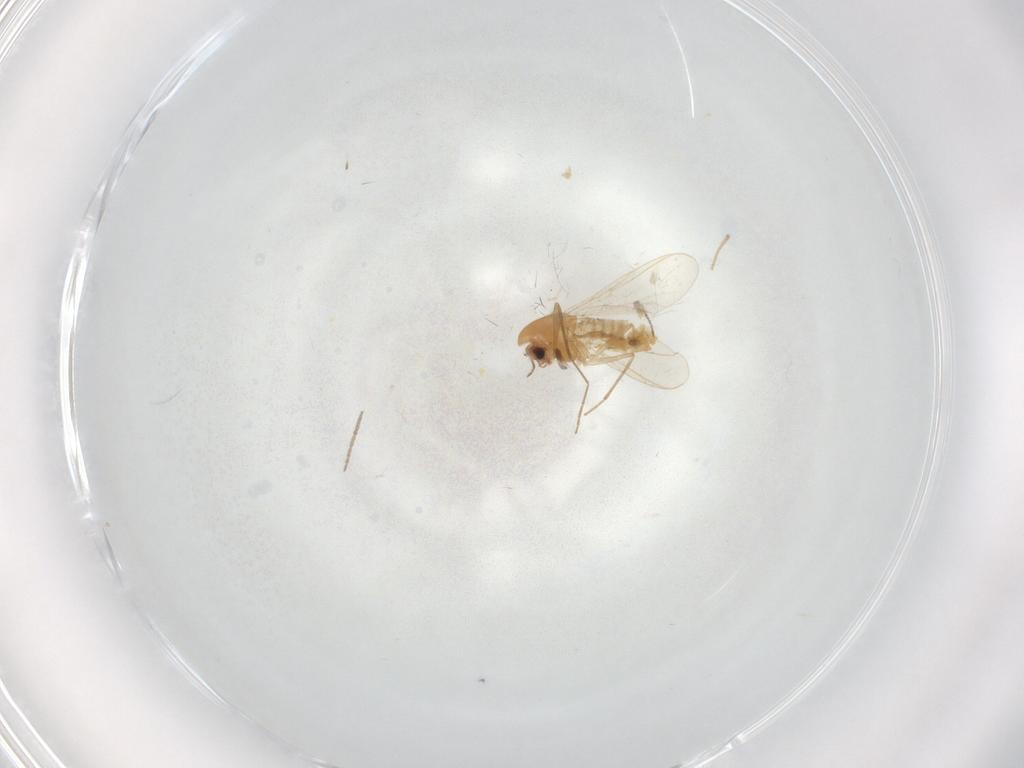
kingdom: Animalia
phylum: Arthropoda
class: Insecta
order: Diptera
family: Chironomidae
